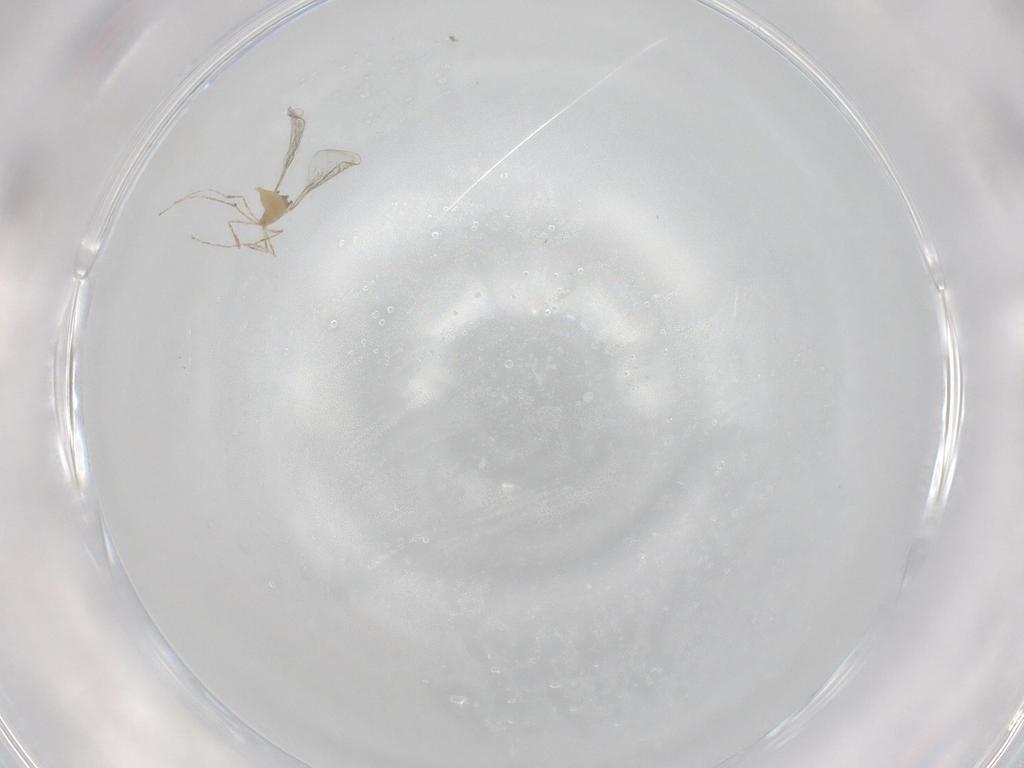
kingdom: Animalia
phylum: Arthropoda
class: Insecta
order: Diptera
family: Cecidomyiidae
